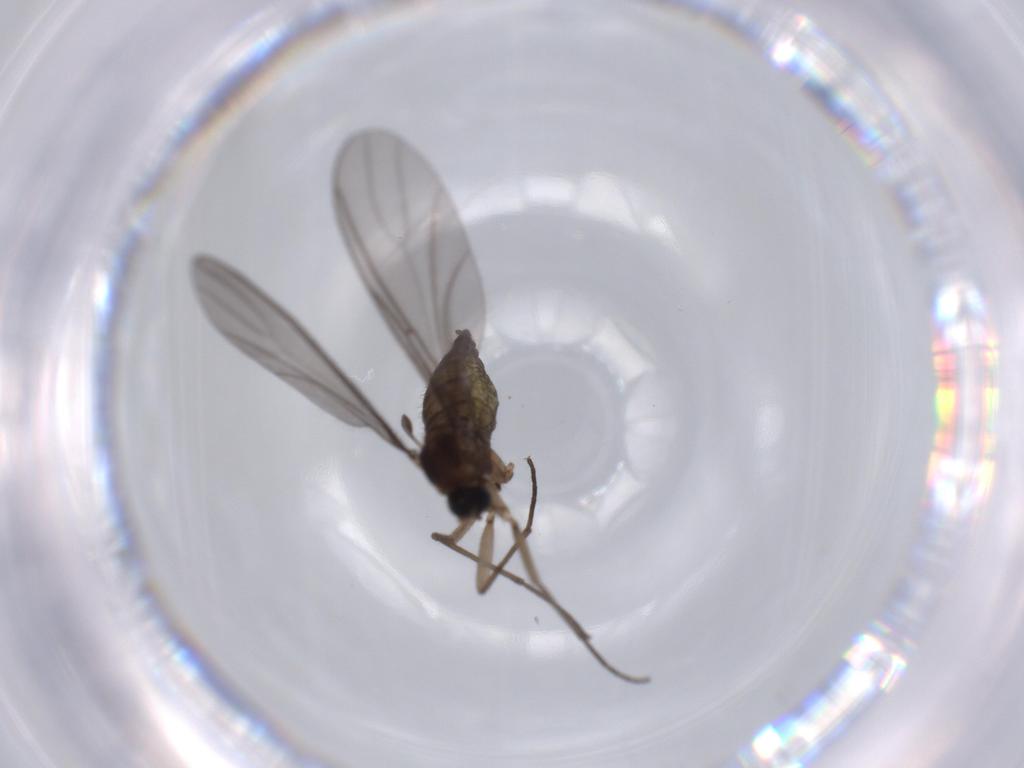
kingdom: Animalia
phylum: Arthropoda
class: Insecta
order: Diptera
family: Sciaridae
